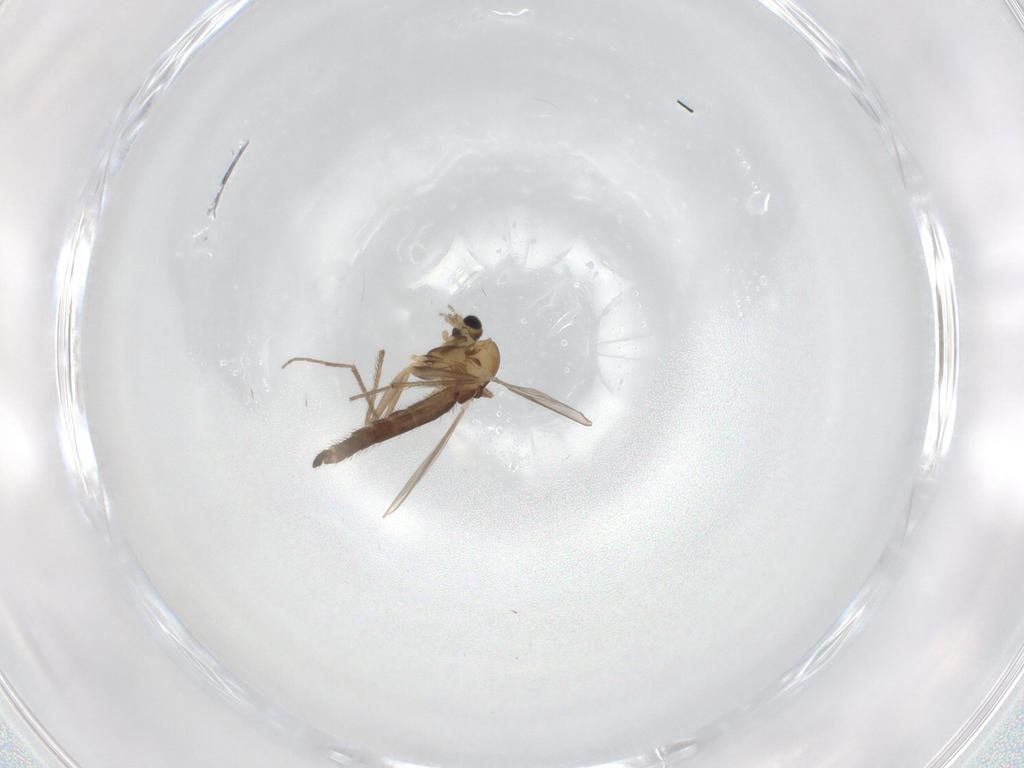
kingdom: Animalia
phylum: Arthropoda
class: Insecta
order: Diptera
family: Chironomidae
